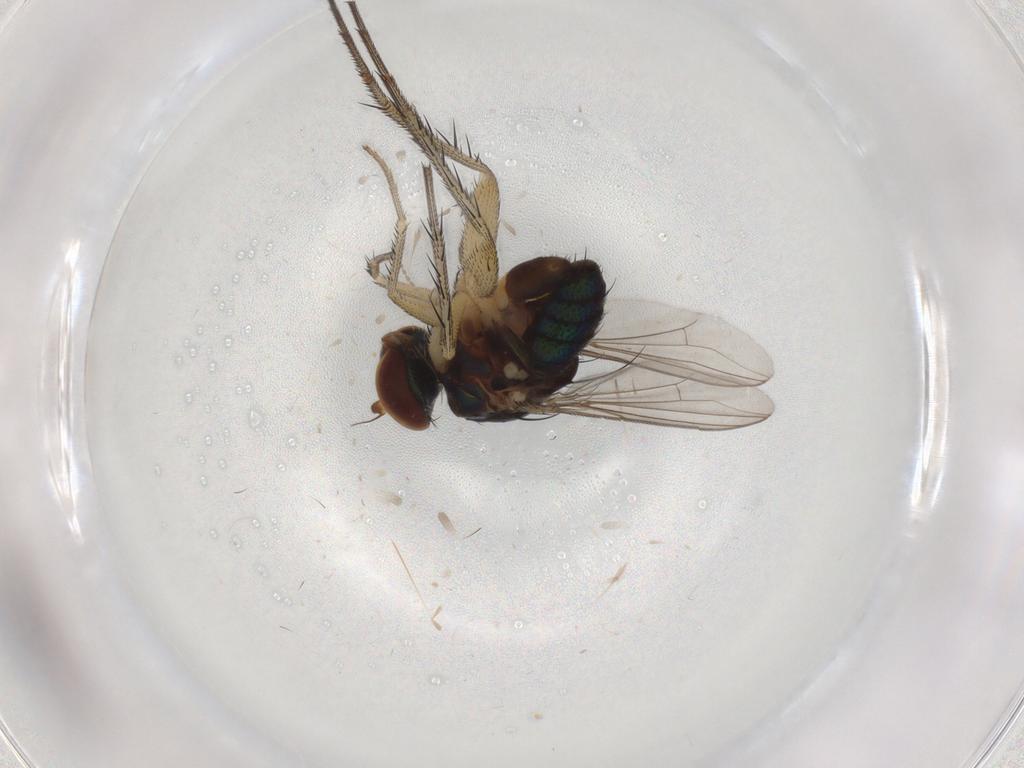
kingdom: Animalia
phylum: Arthropoda
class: Insecta
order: Diptera
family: Dolichopodidae
